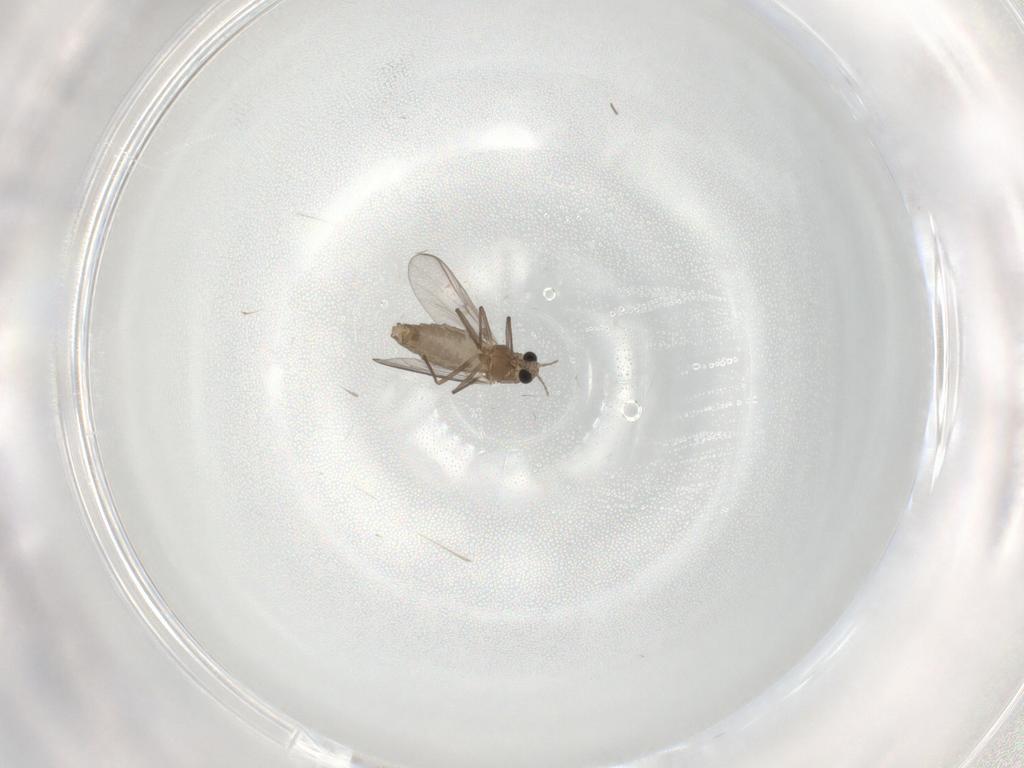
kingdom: Animalia
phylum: Arthropoda
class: Insecta
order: Diptera
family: Chironomidae
